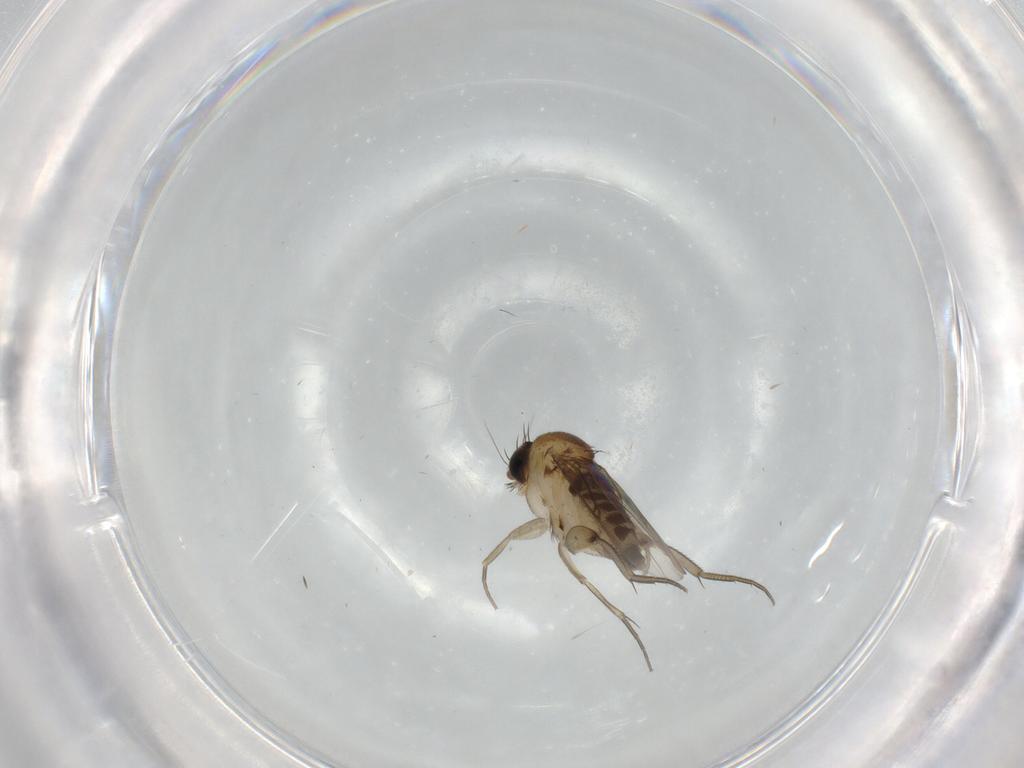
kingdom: Animalia
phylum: Arthropoda
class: Insecta
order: Diptera
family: Phoridae
